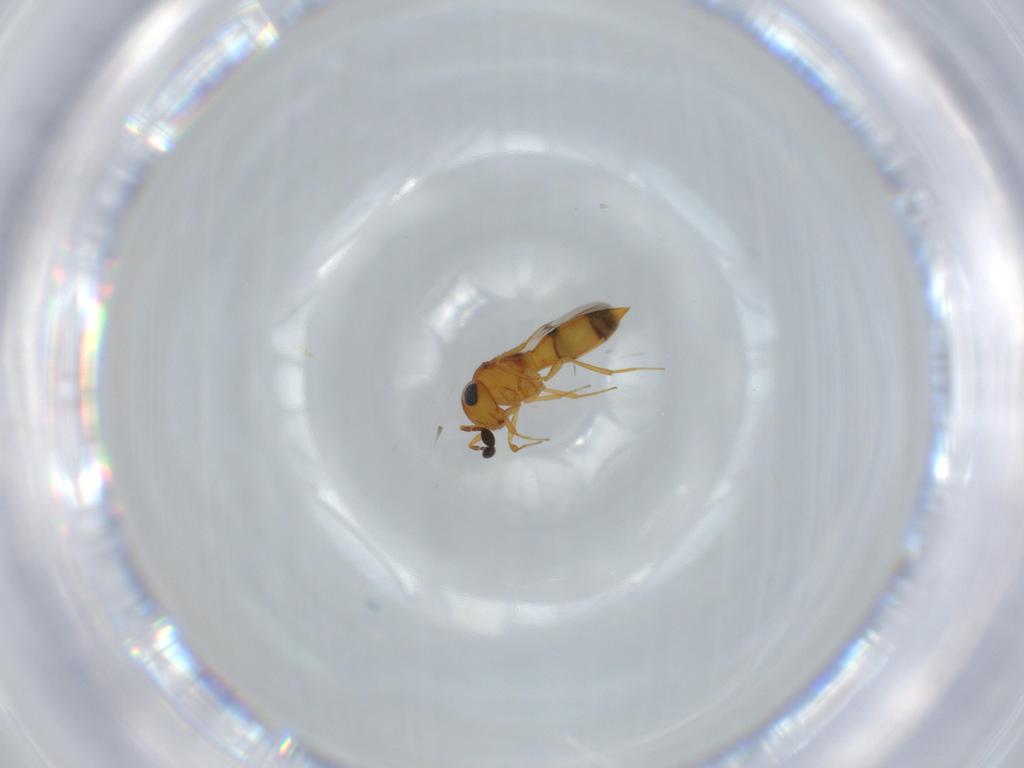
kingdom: Animalia
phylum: Arthropoda
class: Insecta
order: Hymenoptera
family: Scelionidae
